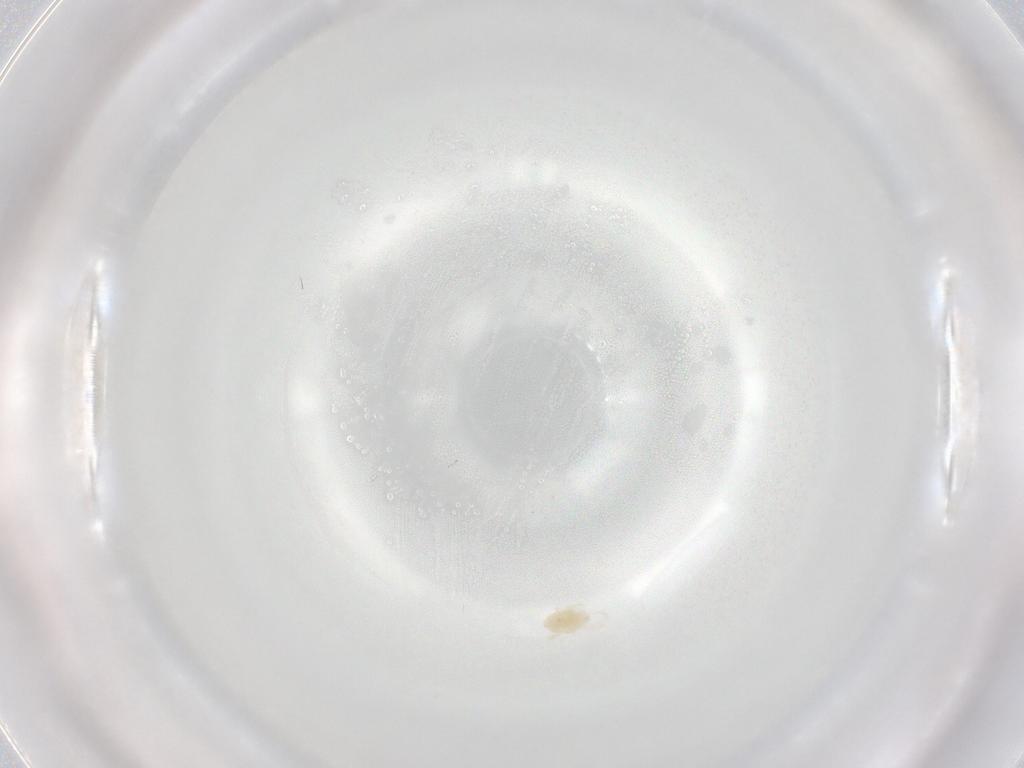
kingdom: Animalia
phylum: Arthropoda
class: Arachnida
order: Trombidiformes
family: Eupodidae
